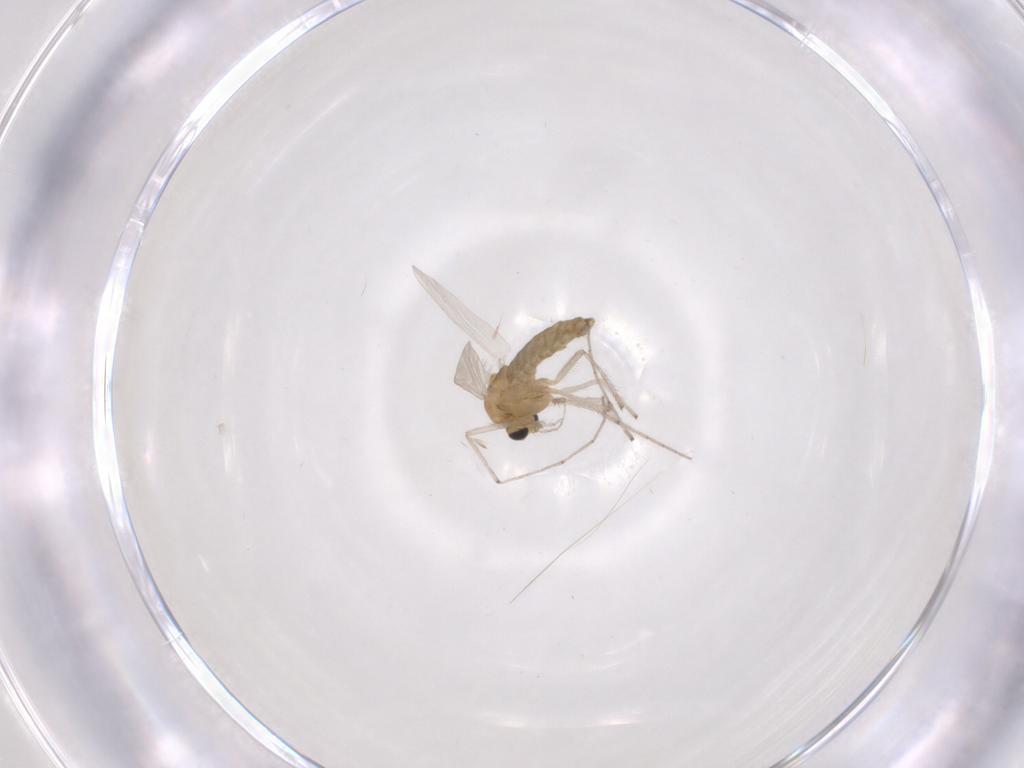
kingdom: Animalia
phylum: Arthropoda
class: Insecta
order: Diptera
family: Chironomidae
